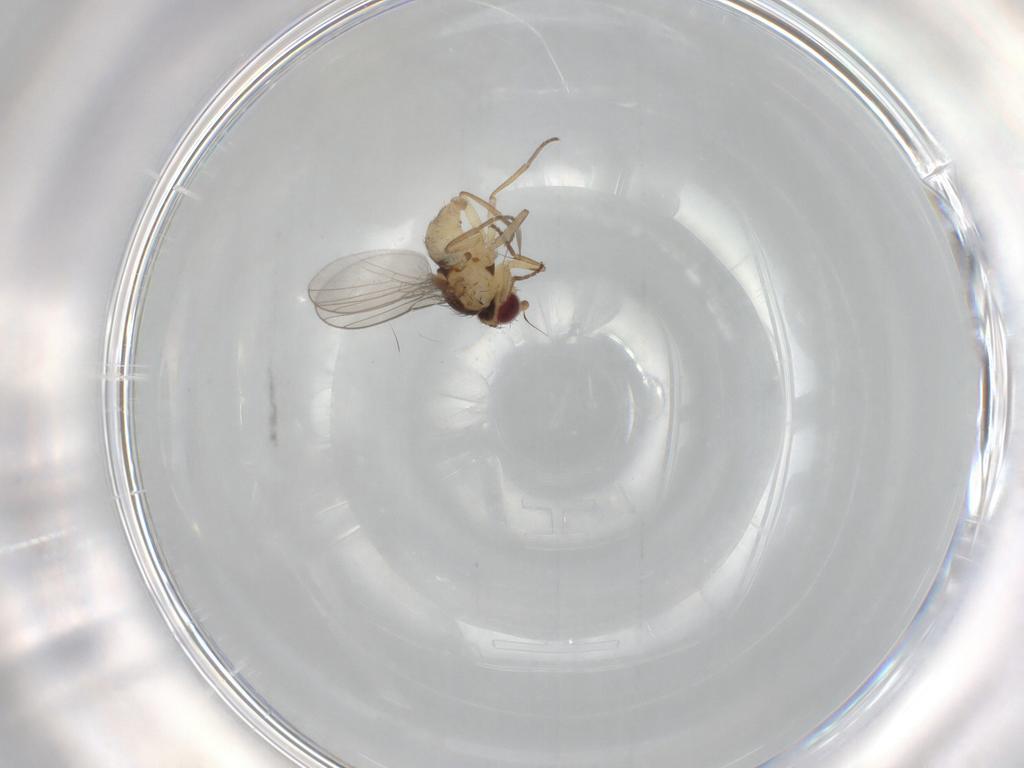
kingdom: Animalia
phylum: Arthropoda
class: Insecta
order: Diptera
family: Agromyzidae
